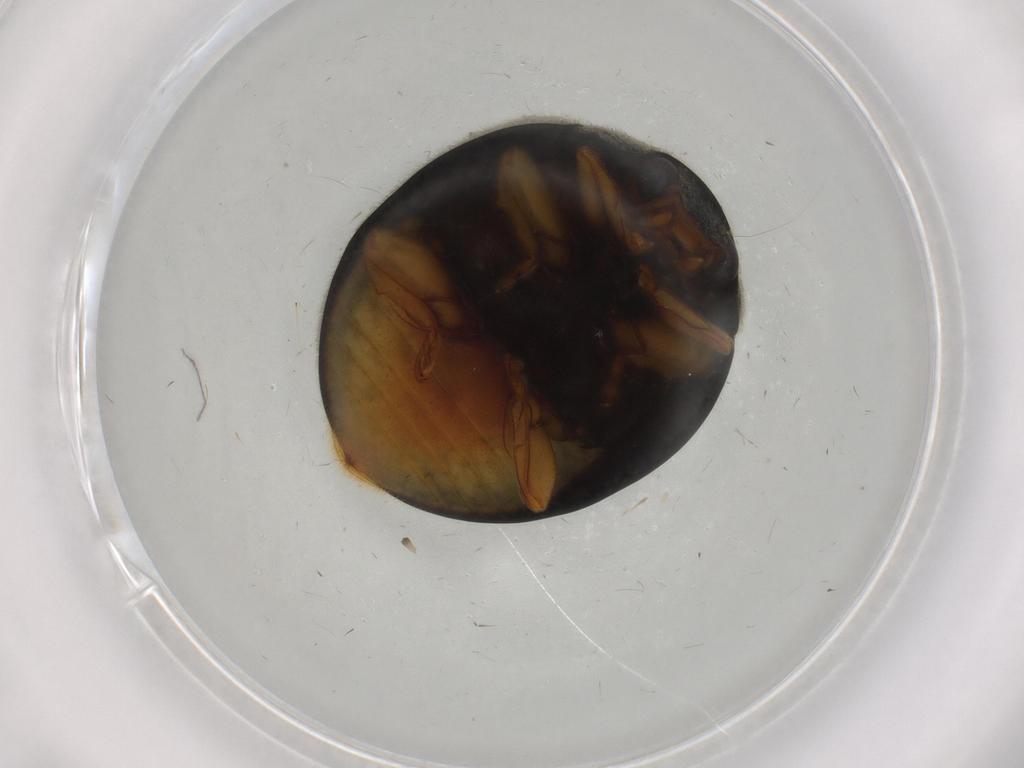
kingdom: Animalia
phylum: Arthropoda
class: Insecta
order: Coleoptera
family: Coccinellidae
